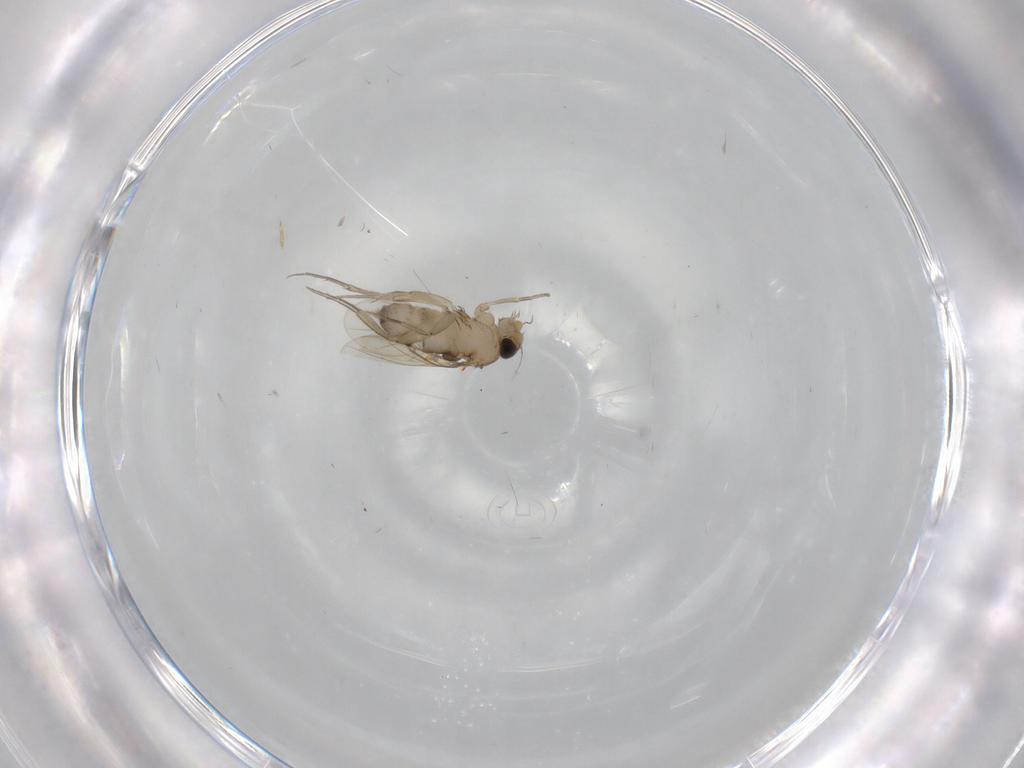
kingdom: Animalia
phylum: Arthropoda
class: Insecta
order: Diptera
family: Phoridae
